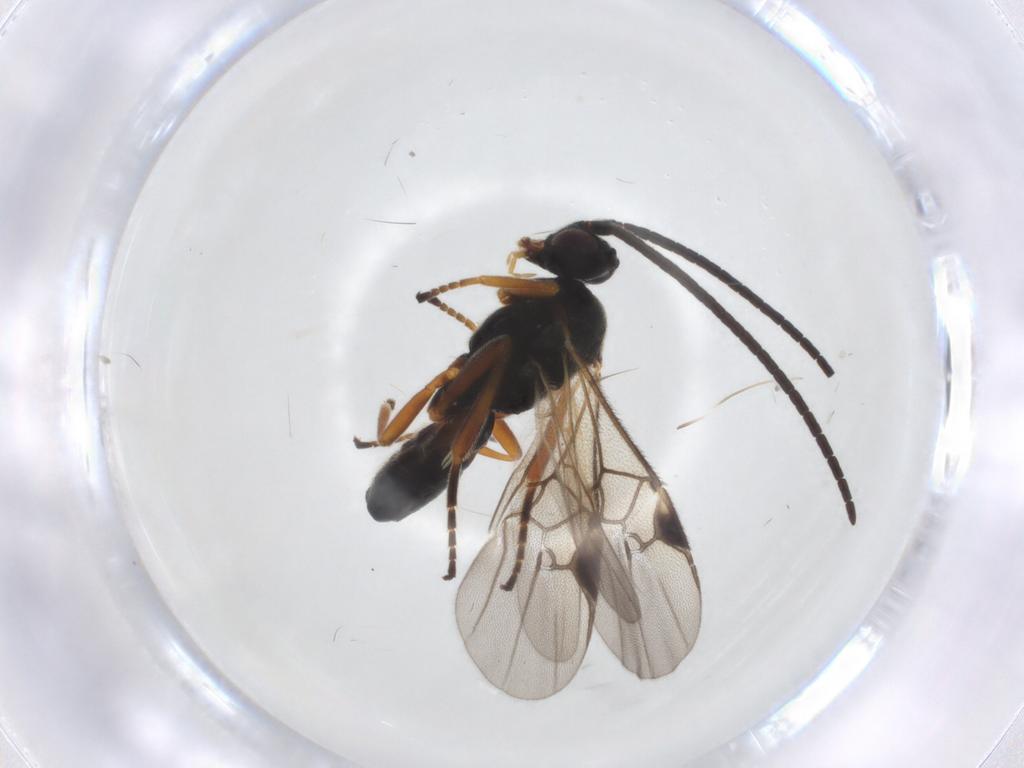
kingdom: Animalia
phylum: Arthropoda
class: Insecta
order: Hymenoptera
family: Braconidae
